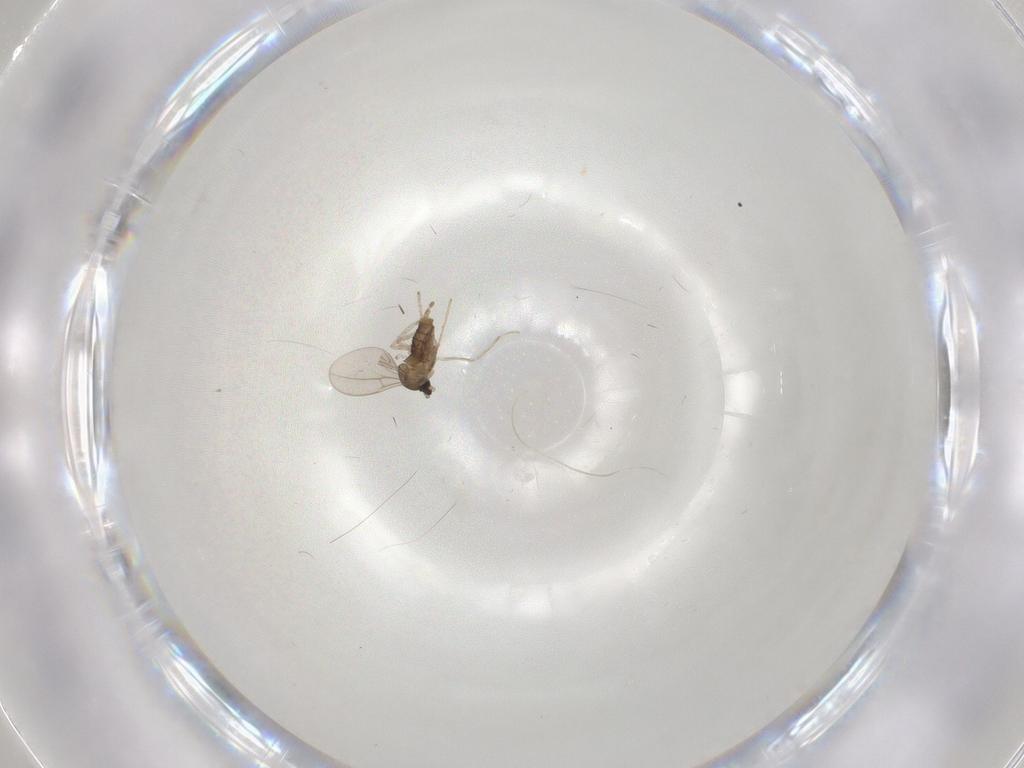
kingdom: Animalia
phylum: Arthropoda
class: Insecta
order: Diptera
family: Cecidomyiidae
